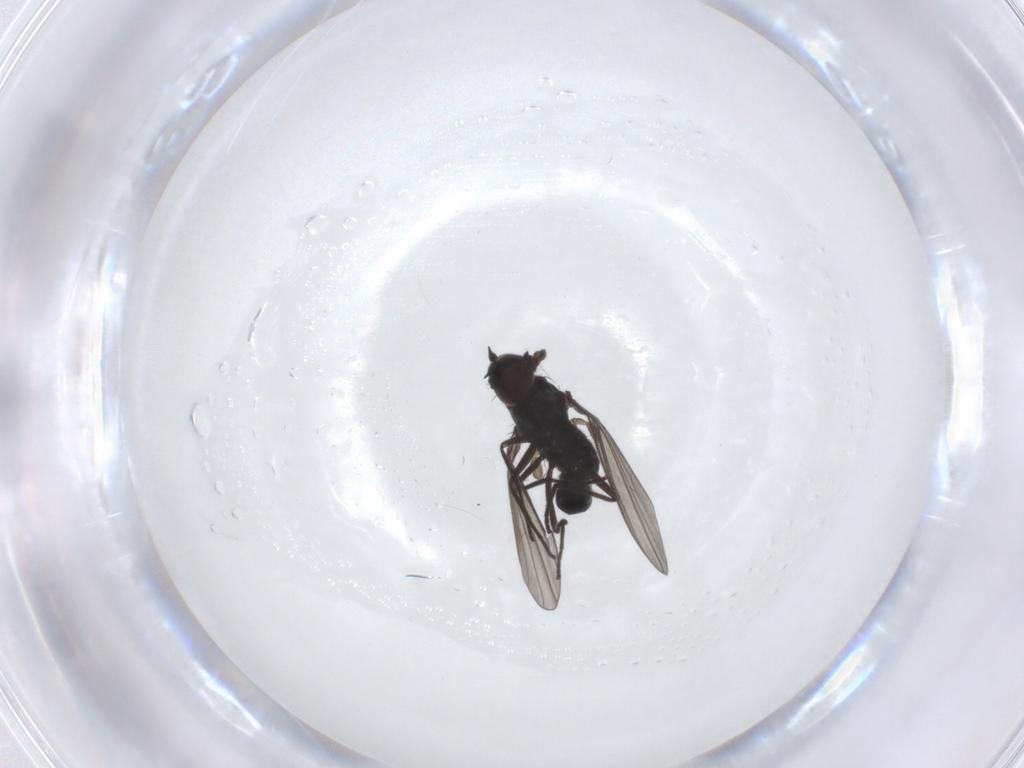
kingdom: Animalia
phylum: Arthropoda
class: Insecta
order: Diptera
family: Dolichopodidae
